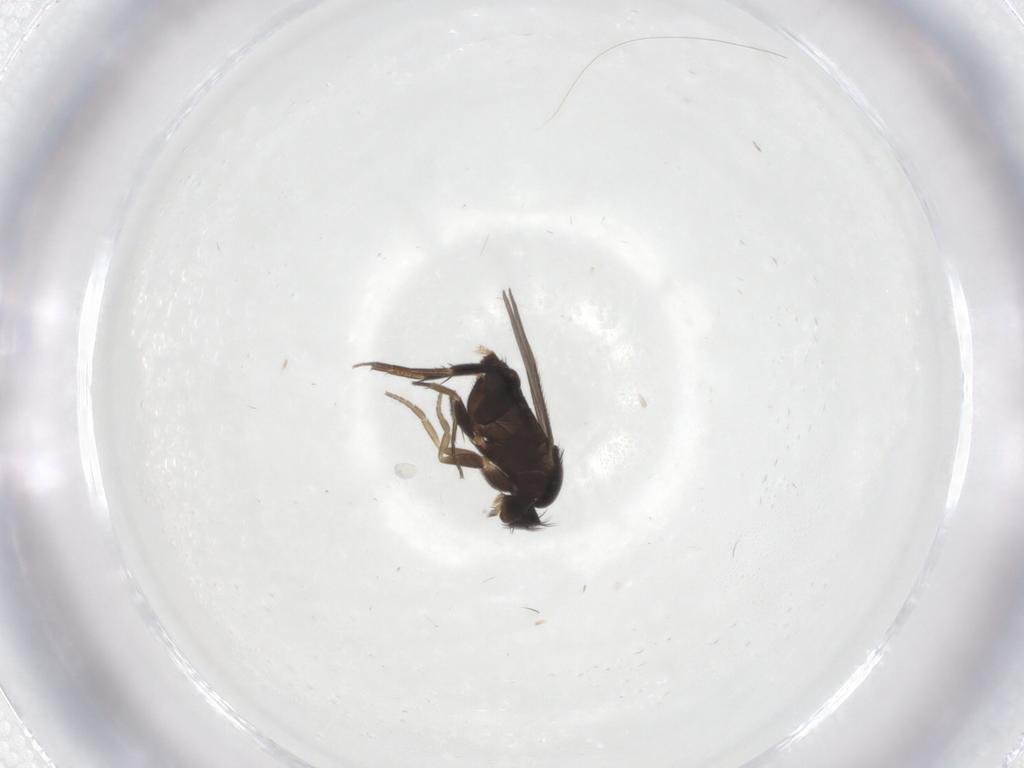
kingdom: Animalia
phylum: Arthropoda
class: Insecta
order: Diptera
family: Phoridae
